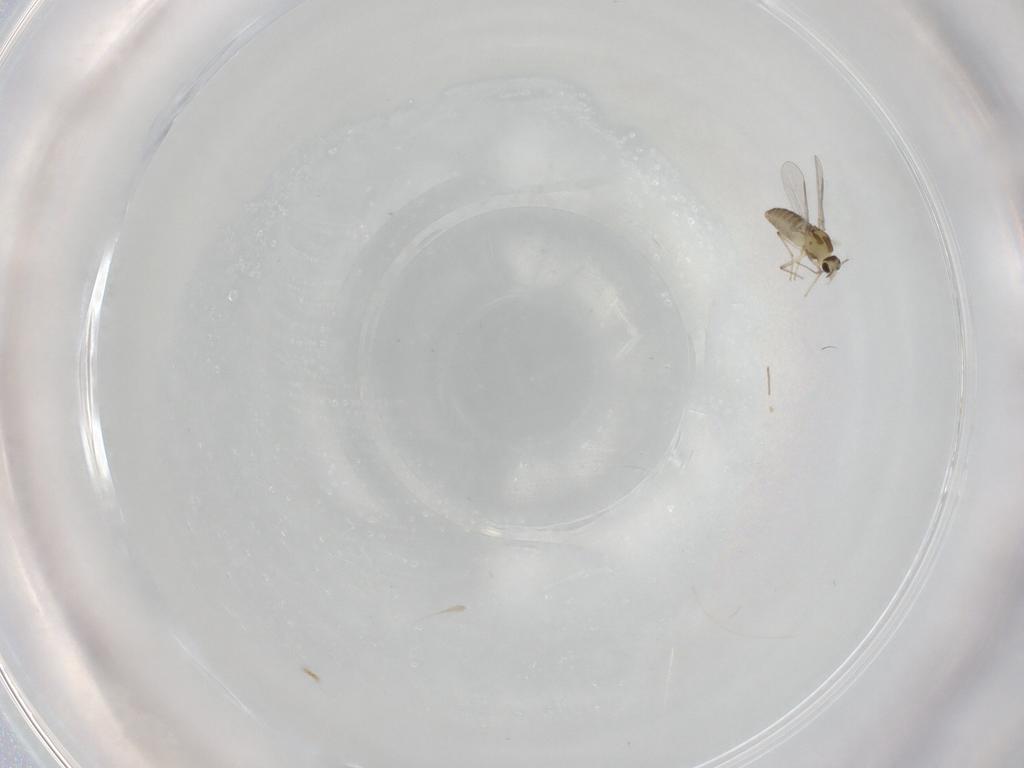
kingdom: Animalia
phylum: Arthropoda
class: Insecta
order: Diptera
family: Chironomidae
